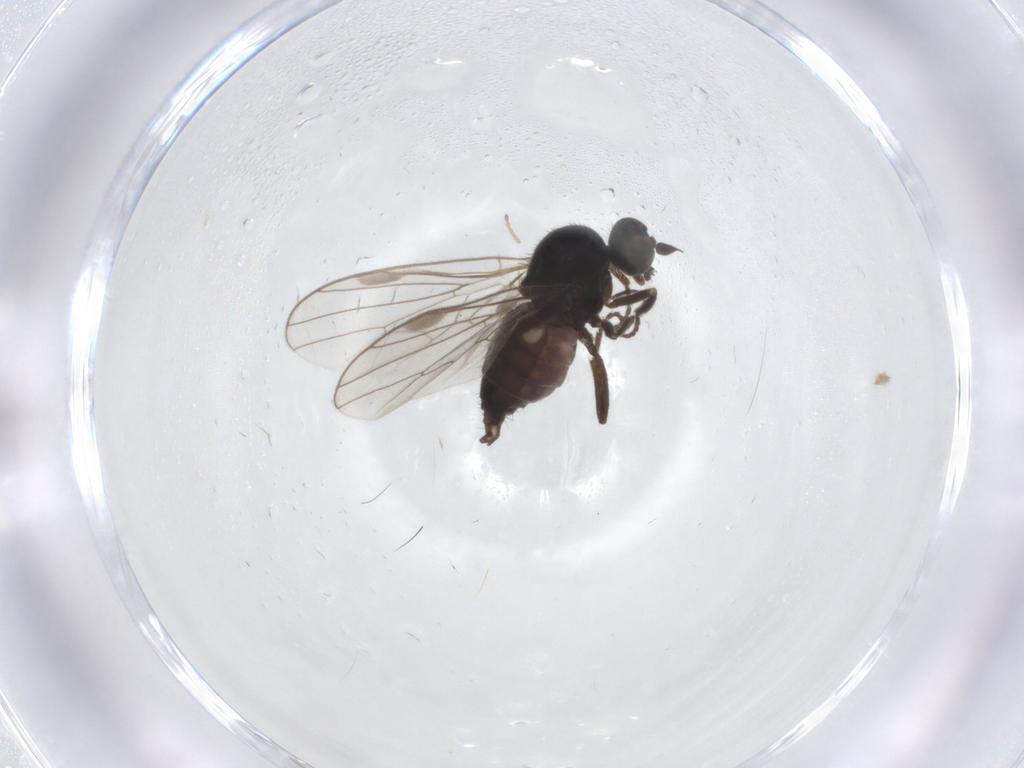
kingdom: Animalia
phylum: Arthropoda
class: Insecta
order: Diptera
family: Hybotidae
